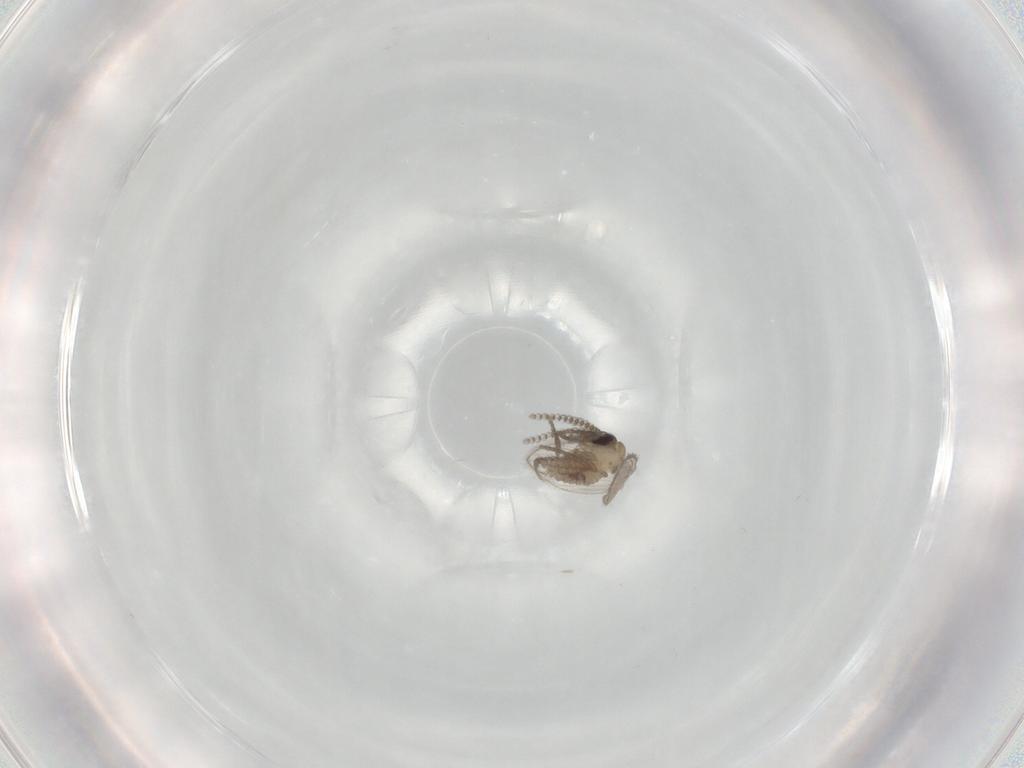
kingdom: Animalia
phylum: Arthropoda
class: Insecta
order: Diptera
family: Psychodidae
